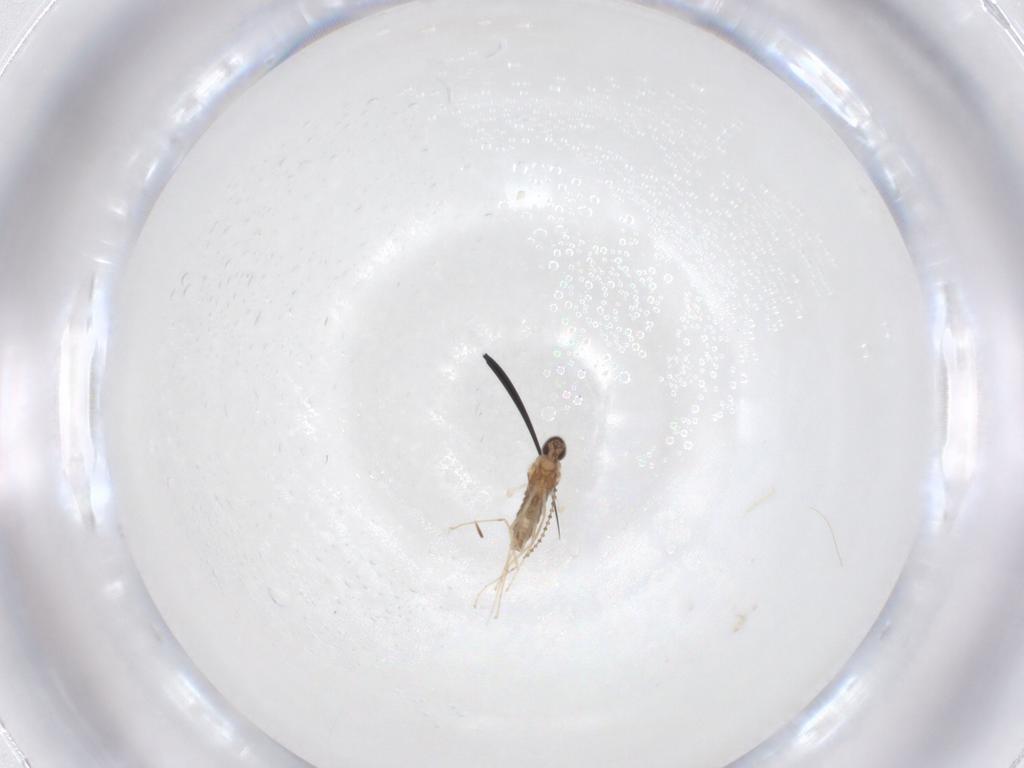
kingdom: Animalia
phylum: Arthropoda
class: Insecta
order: Diptera
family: Cecidomyiidae
